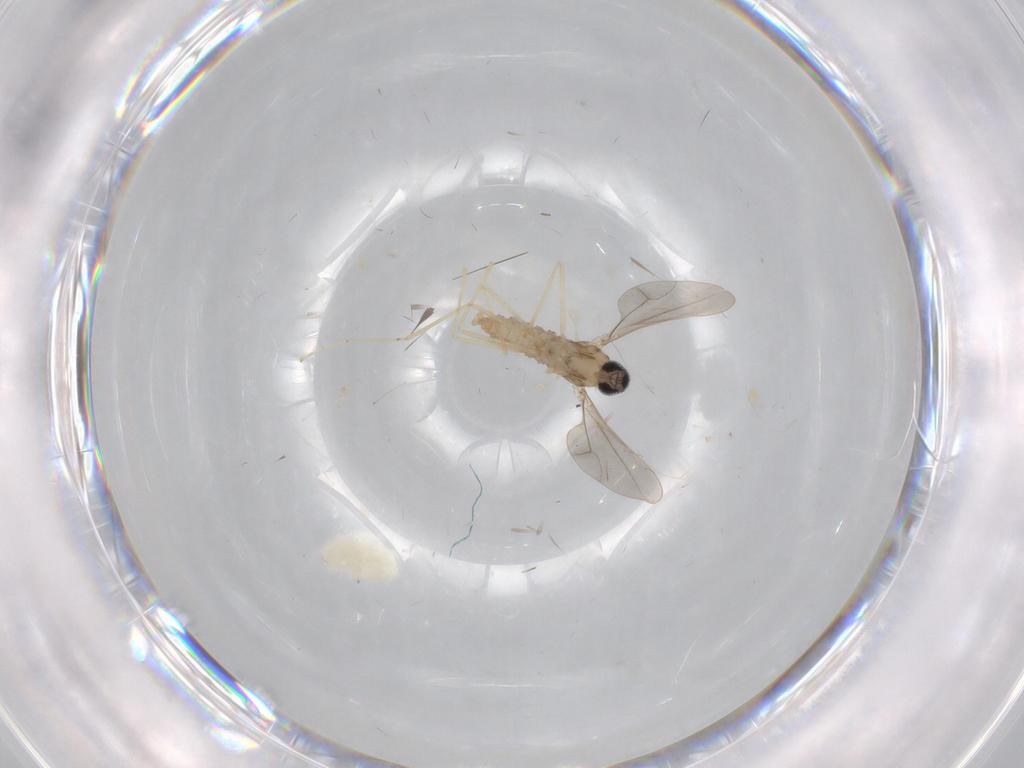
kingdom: Animalia
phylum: Arthropoda
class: Insecta
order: Diptera
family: Cecidomyiidae
